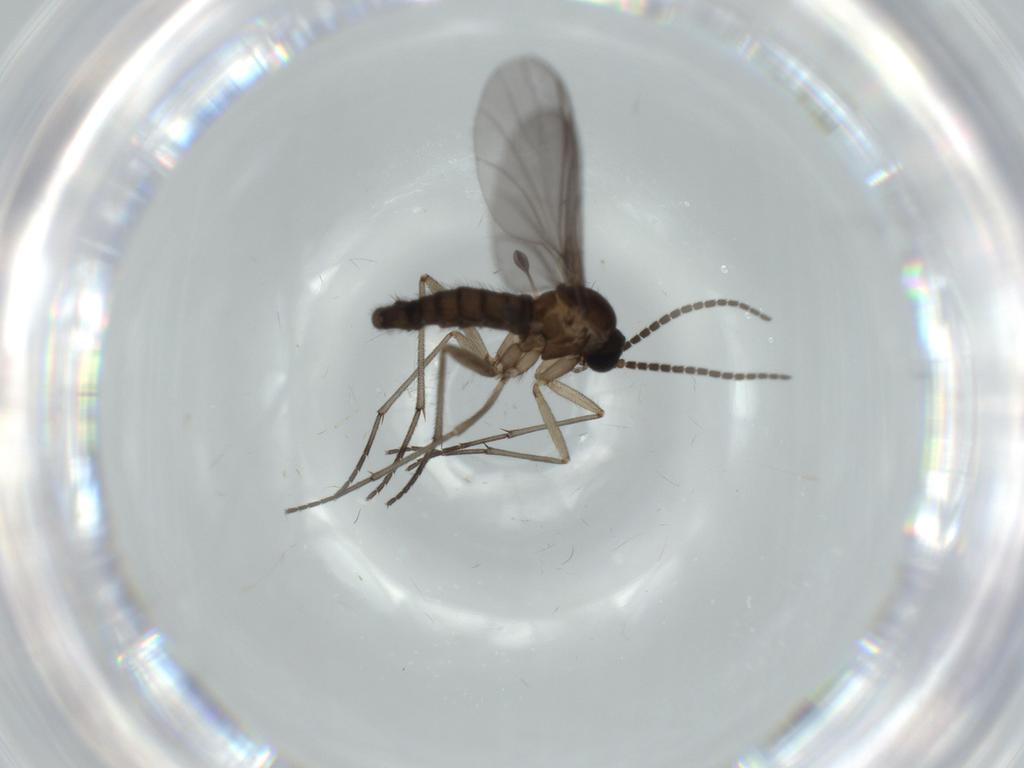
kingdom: Animalia
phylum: Arthropoda
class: Insecta
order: Diptera
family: Sciaridae
